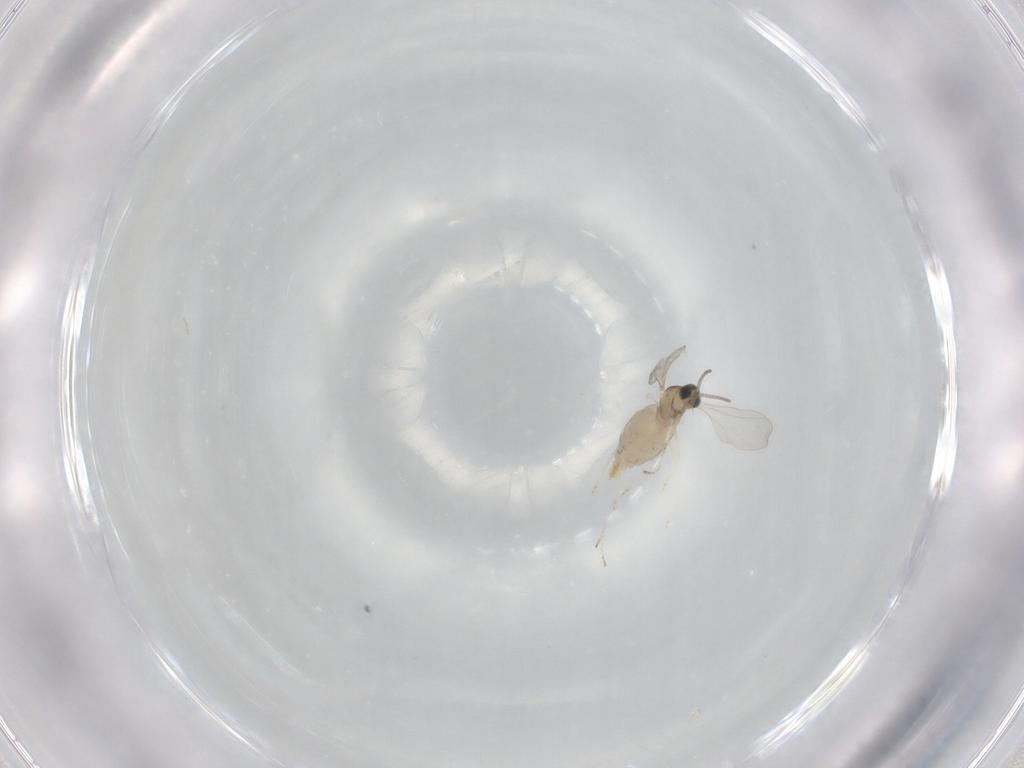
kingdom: Animalia
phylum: Arthropoda
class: Insecta
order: Diptera
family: Cecidomyiidae
